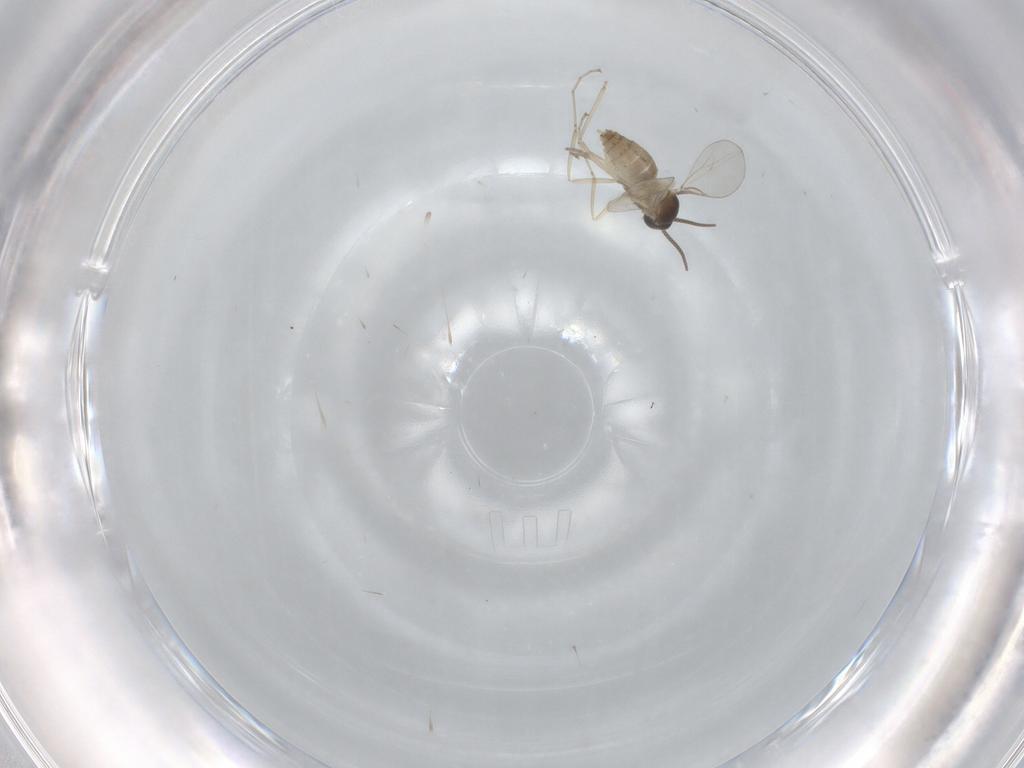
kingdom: Animalia
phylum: Arthropoda
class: Insecta
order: Diptera
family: Cecidomyiidae
